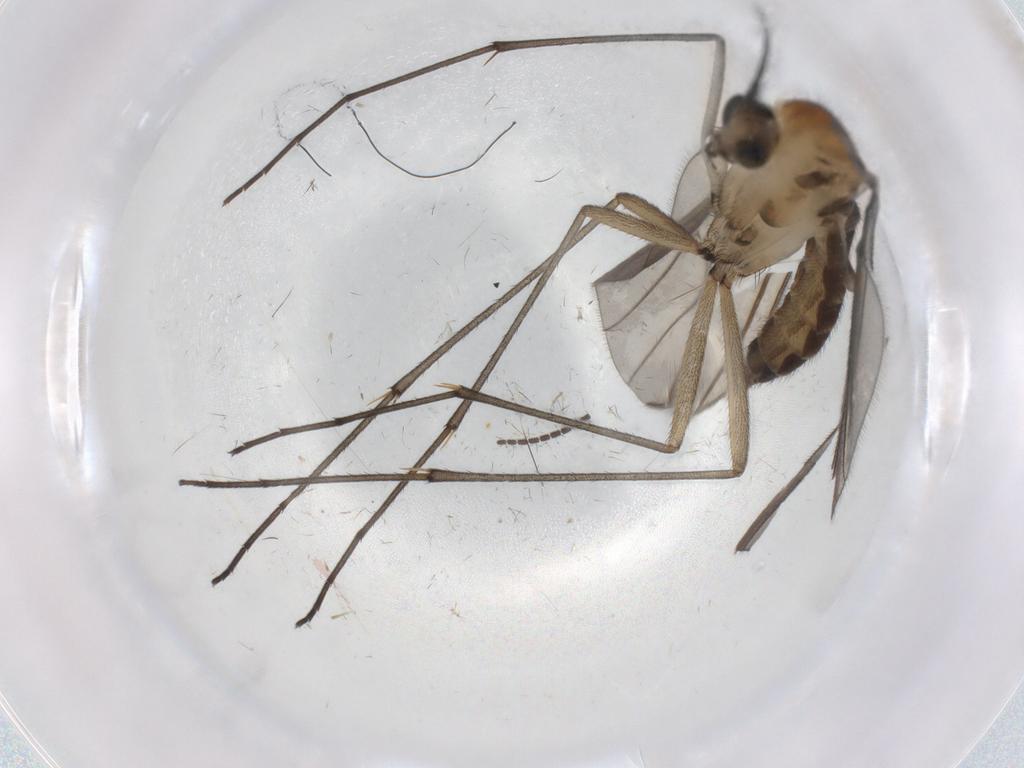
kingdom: Animalia
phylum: Arthropoda
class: Insecta
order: Diptera
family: Sciaridae
